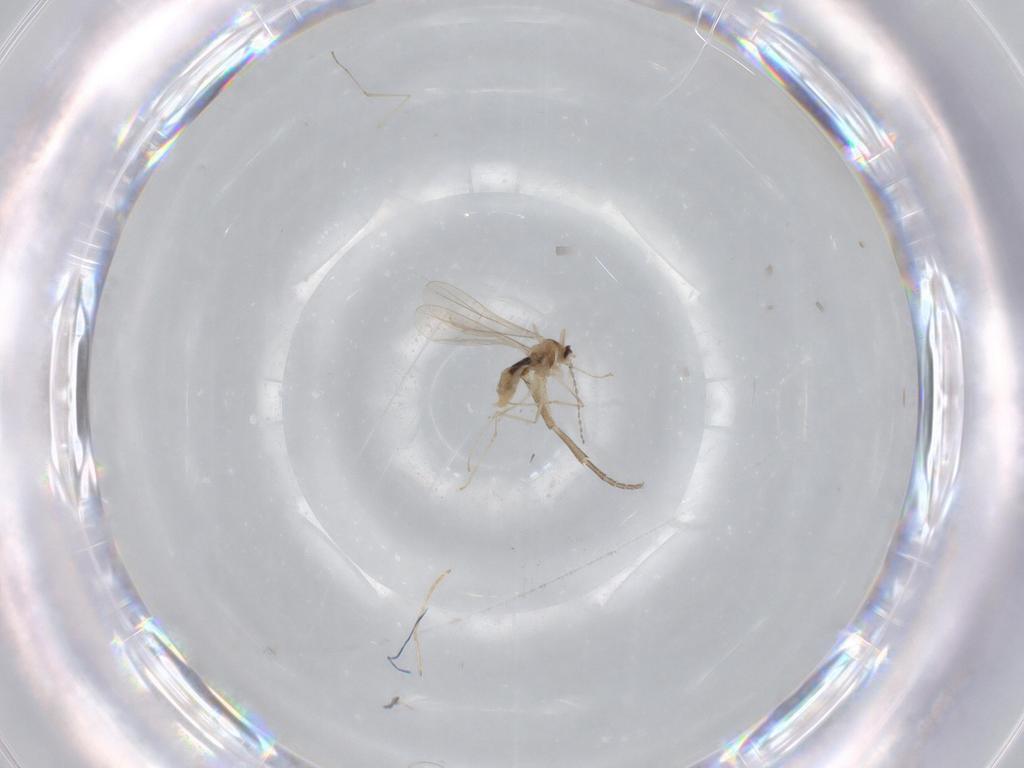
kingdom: Animalia
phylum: Arthropoda
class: Insecta
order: Diptera
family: Cecidomyiidae
